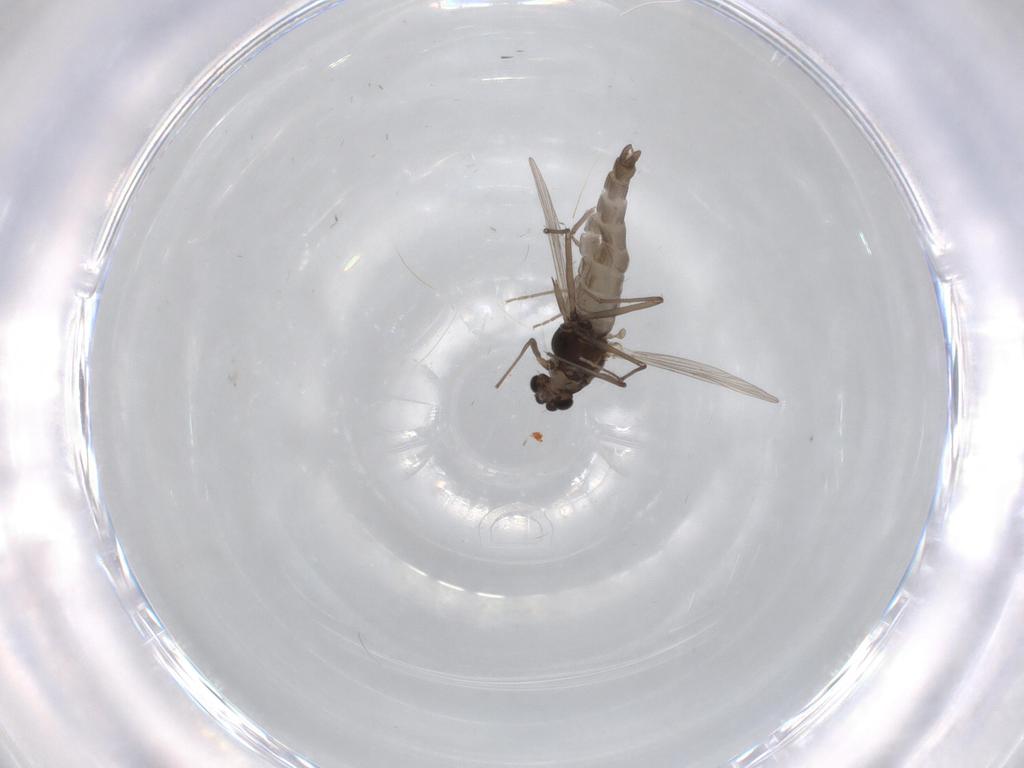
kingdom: Animalia
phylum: Arthropoda
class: Insecta
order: Diptera
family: Chironomidae
